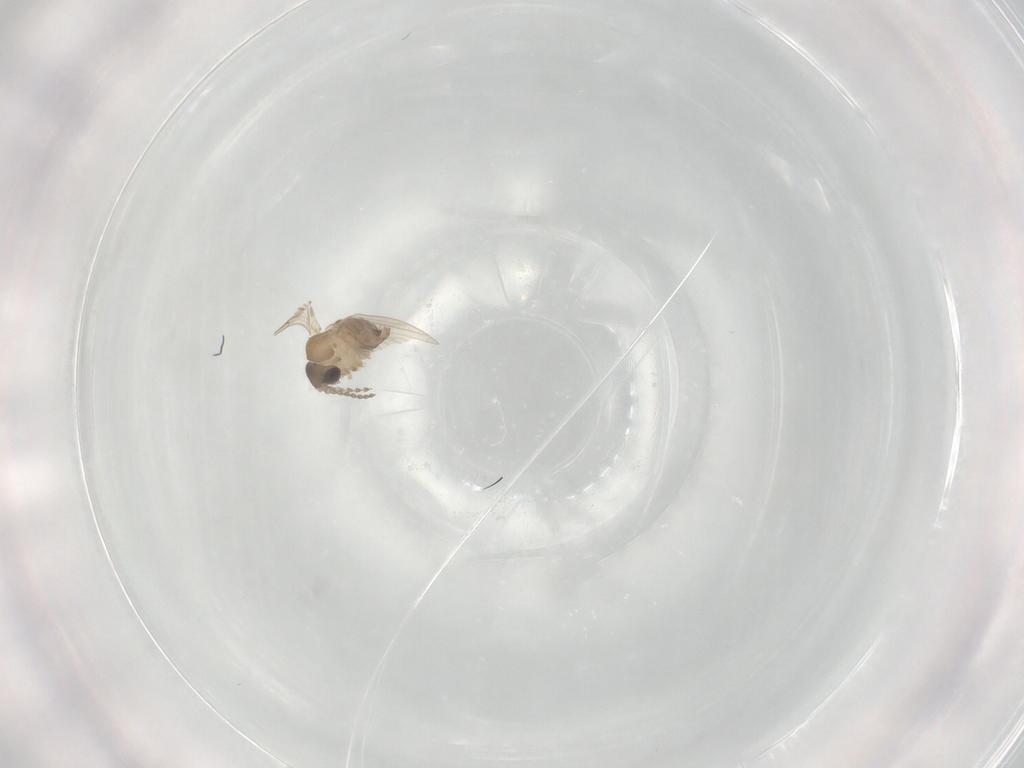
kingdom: Animalia
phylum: Arthropoda
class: Insecta
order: Diptera
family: Psychodidae
